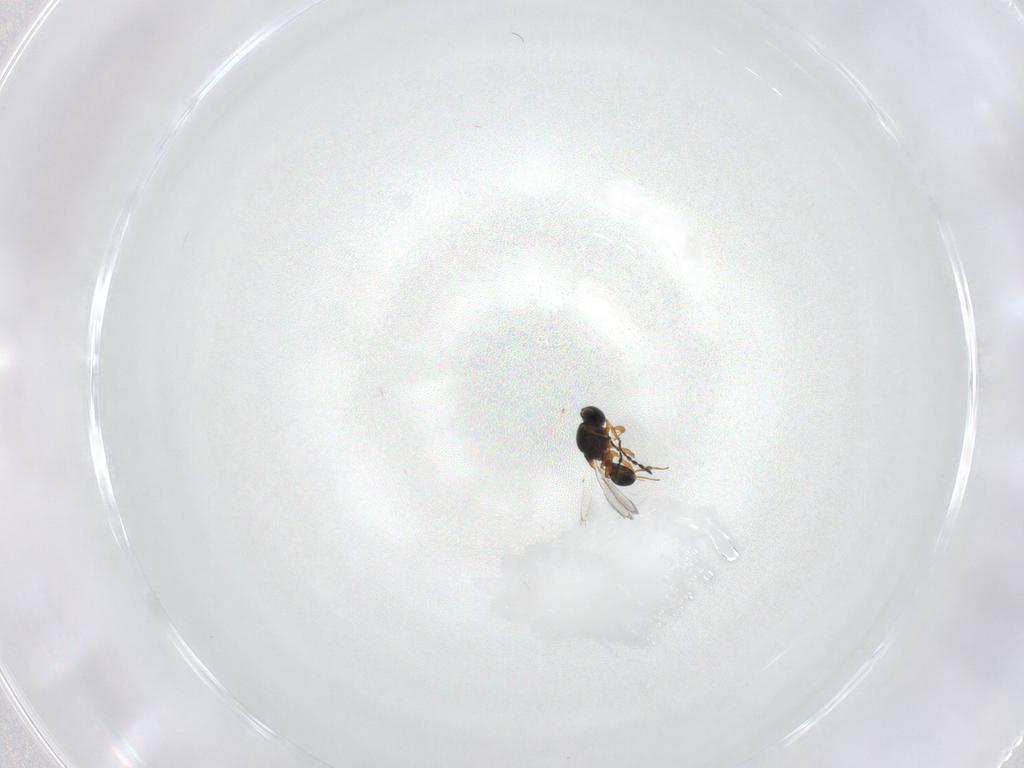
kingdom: Animalia
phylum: Arthropoda
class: Insecta
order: Hymenoptera
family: Platygastridae
